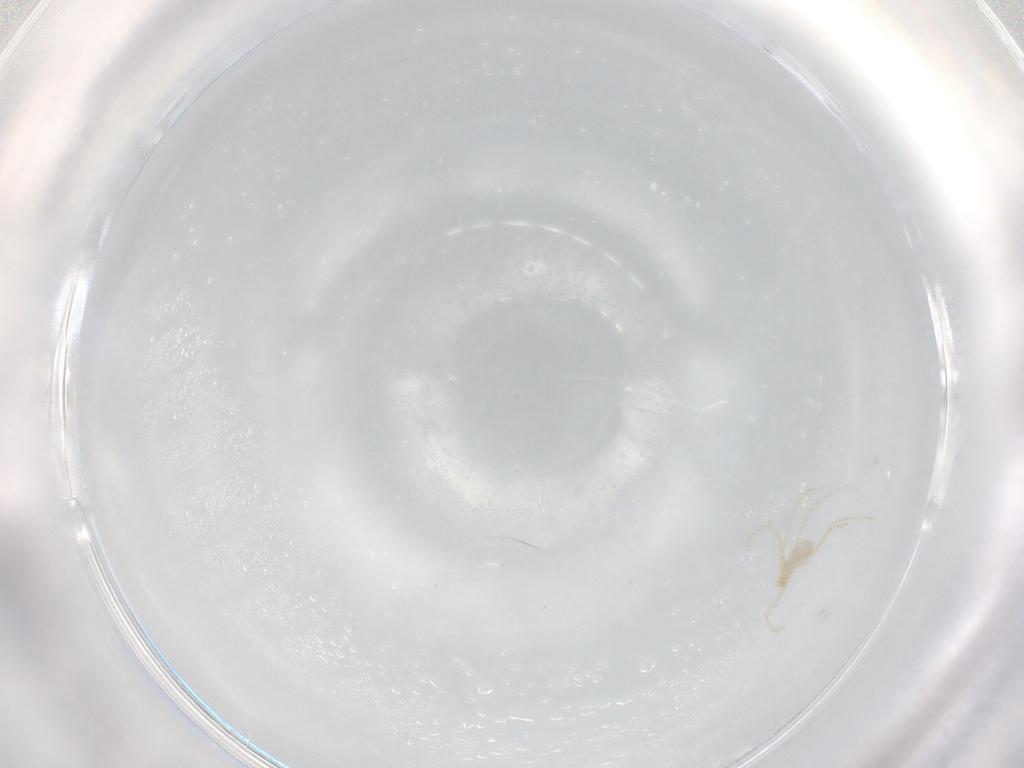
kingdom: Animalia
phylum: Arthropoda
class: Arachnida
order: Trombidiformes
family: Erythraeidae
